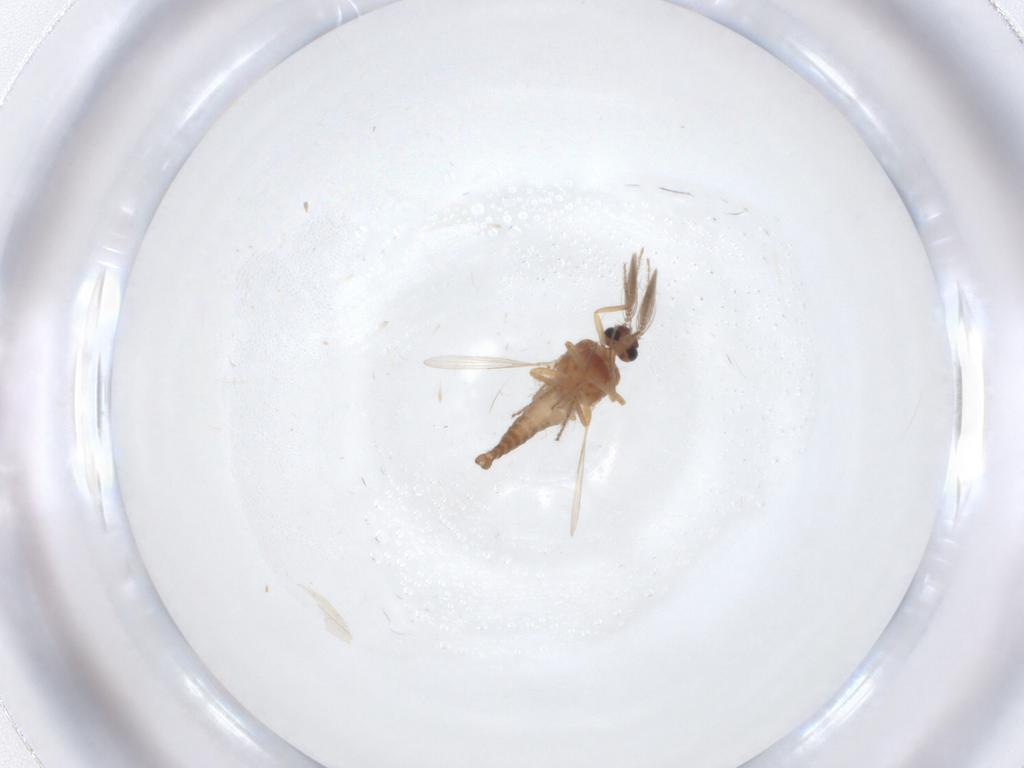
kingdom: Animalia
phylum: Arthropoda
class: Insecta
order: Diptera
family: Ceratopogonidae
